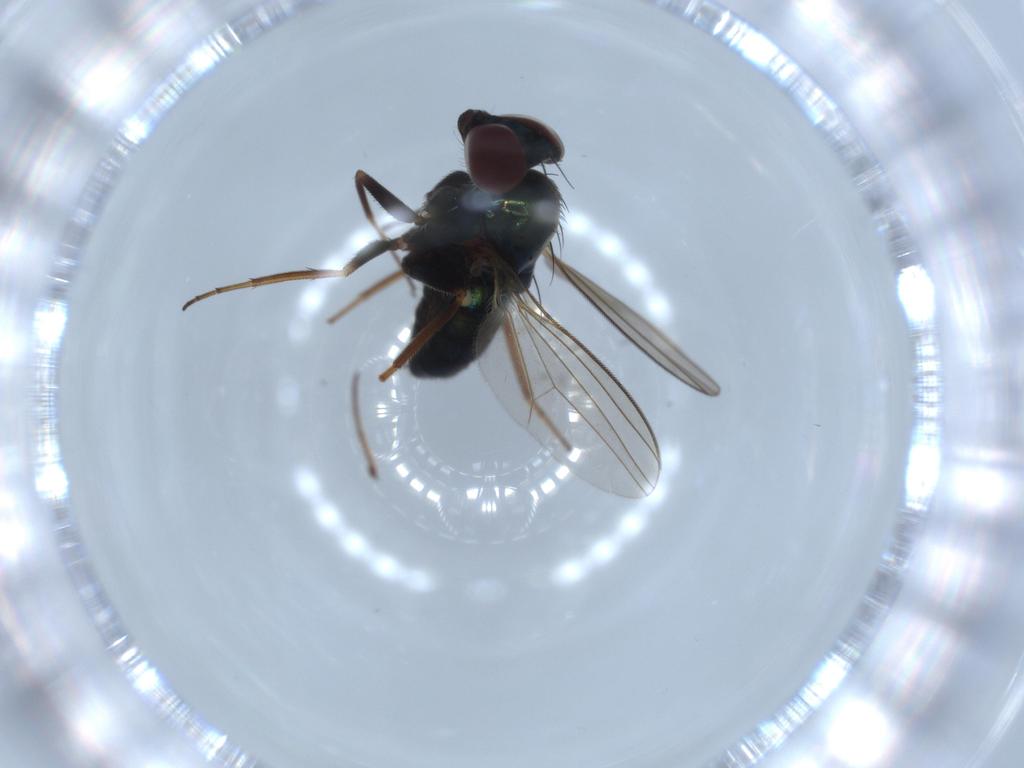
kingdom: Animalia
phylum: Arthropoda
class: Insecta
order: Diptera
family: Dolichopodidae
